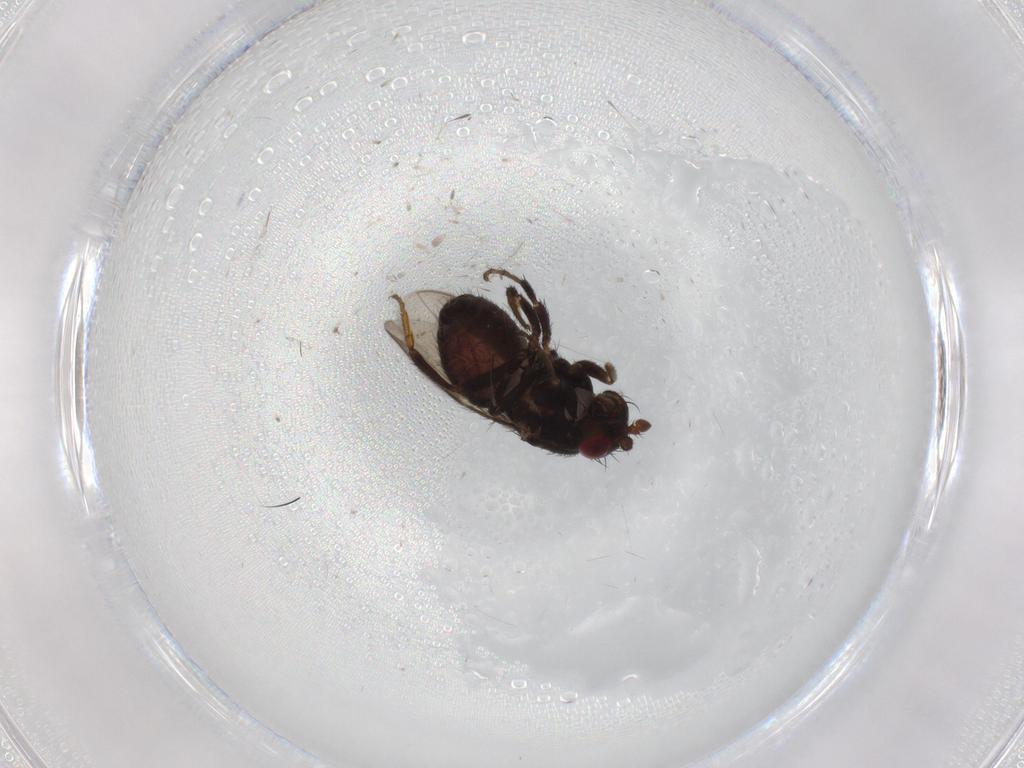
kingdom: Animalia
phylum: Arthropoda
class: Insecta
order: Diptera
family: Sphaeroceridae
